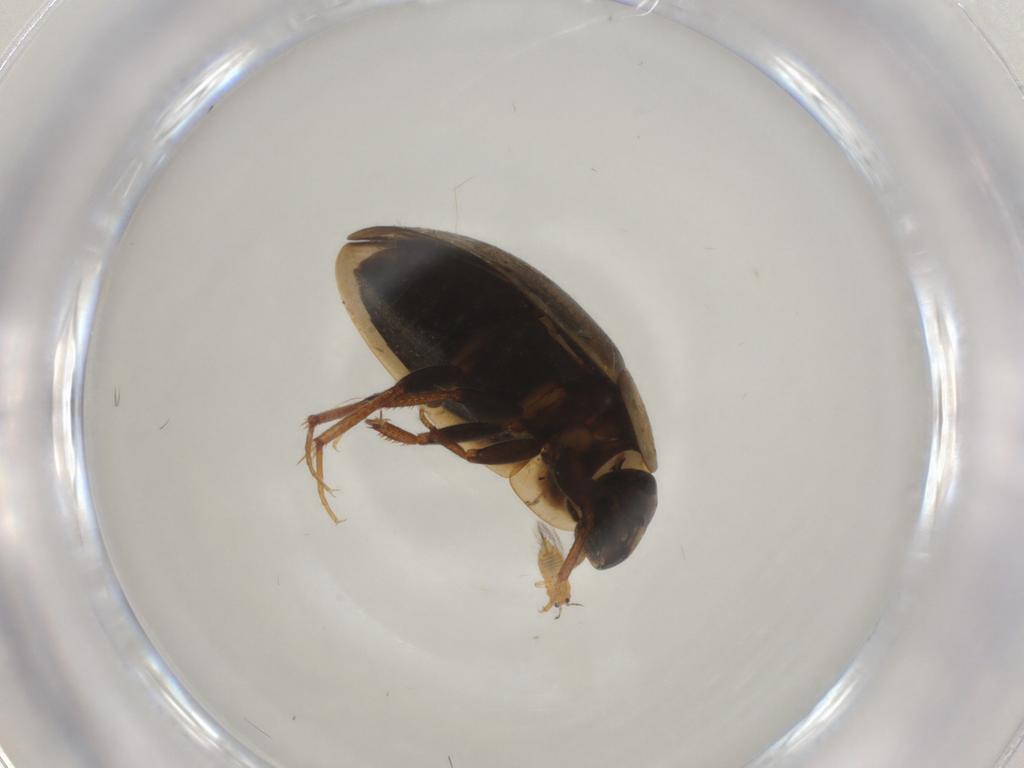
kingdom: Animalia
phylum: Arthropoda
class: Insecta
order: Coleoptera
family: Hydrophilidae
